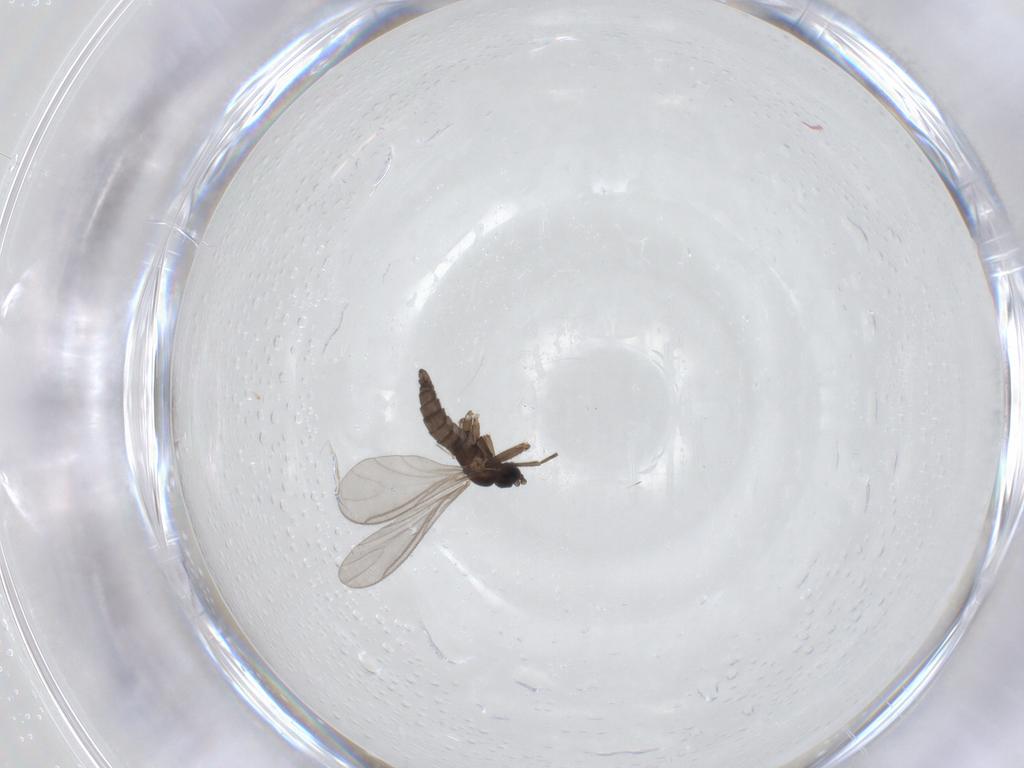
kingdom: Animalia
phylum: Arthropoda
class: Insecta
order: Diptera
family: Sciaridae
